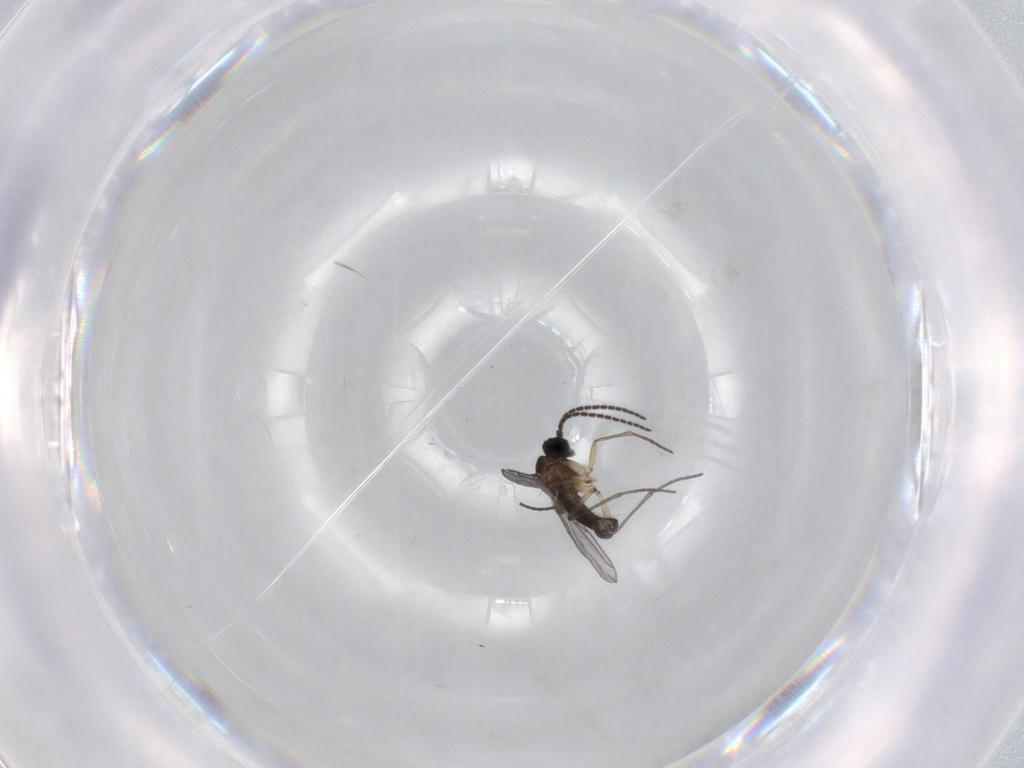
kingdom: Animalia
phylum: Arthropoda
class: Insecta
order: Diptera
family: Sciaridae
